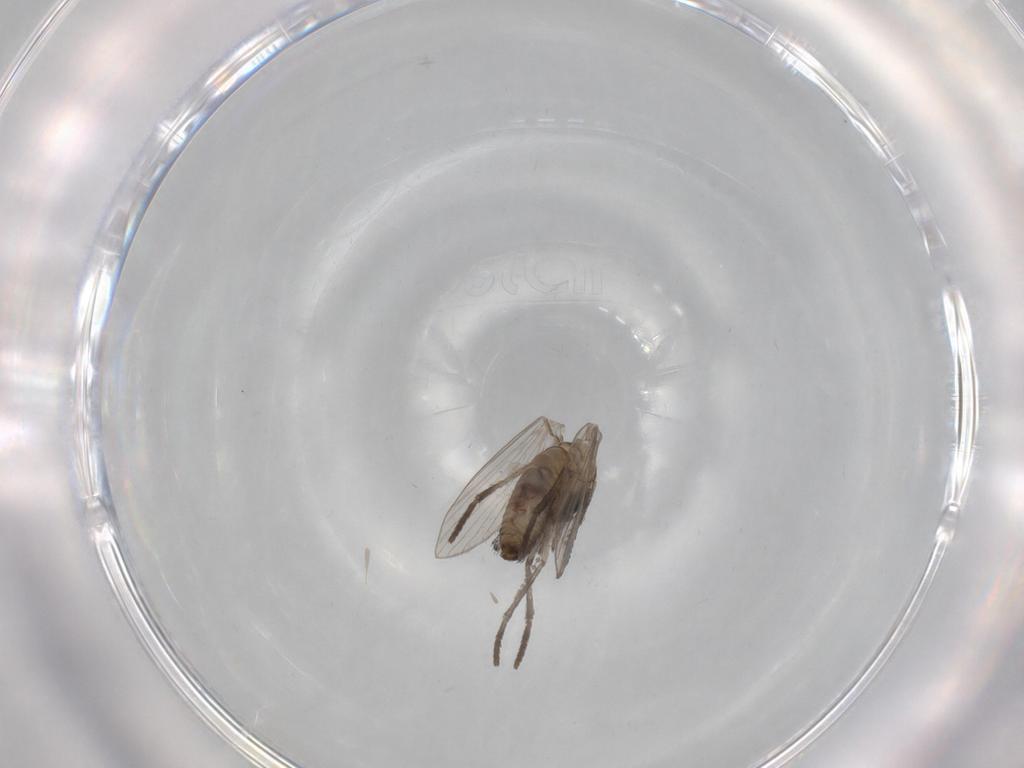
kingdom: Animalia
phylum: Arthropoda
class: Insecta
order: Diptera
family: Psychodidae
